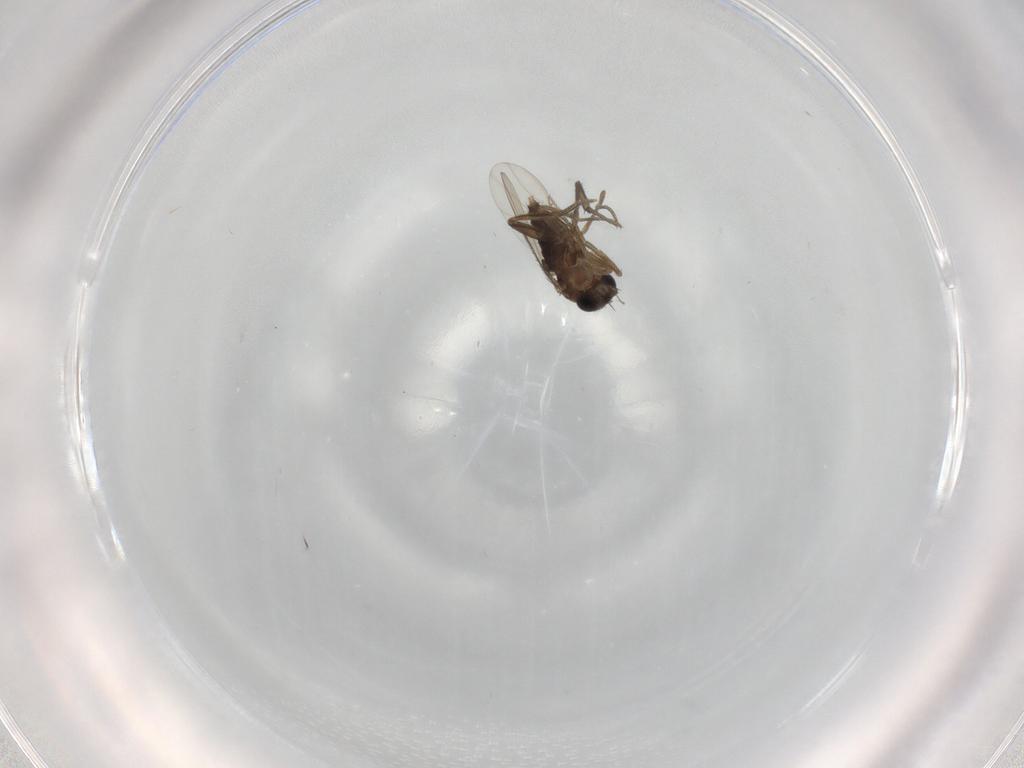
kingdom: Animalia
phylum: Arthropoda
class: Insecta
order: Diptera
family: Phoridae
